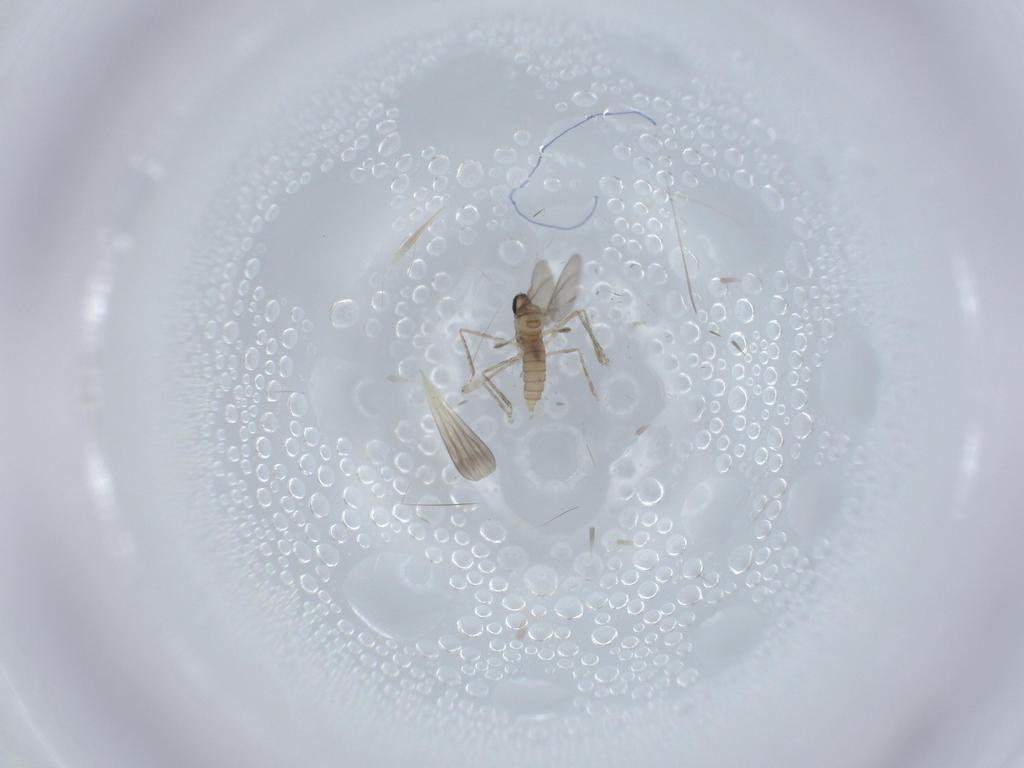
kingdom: Animalia
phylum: Arthropoda
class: Insecta
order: Diptera
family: Cecidomyiidae
